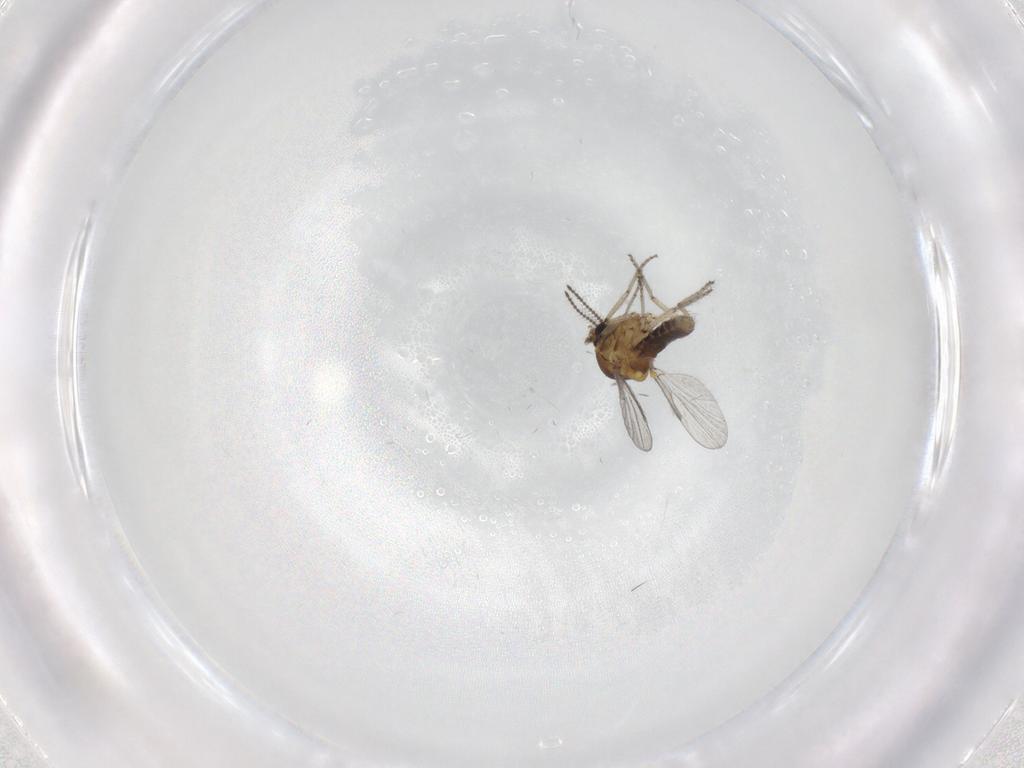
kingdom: Animalia
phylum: Arthropoda
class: Insecta
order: Diptera
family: Ceratopogonidae
